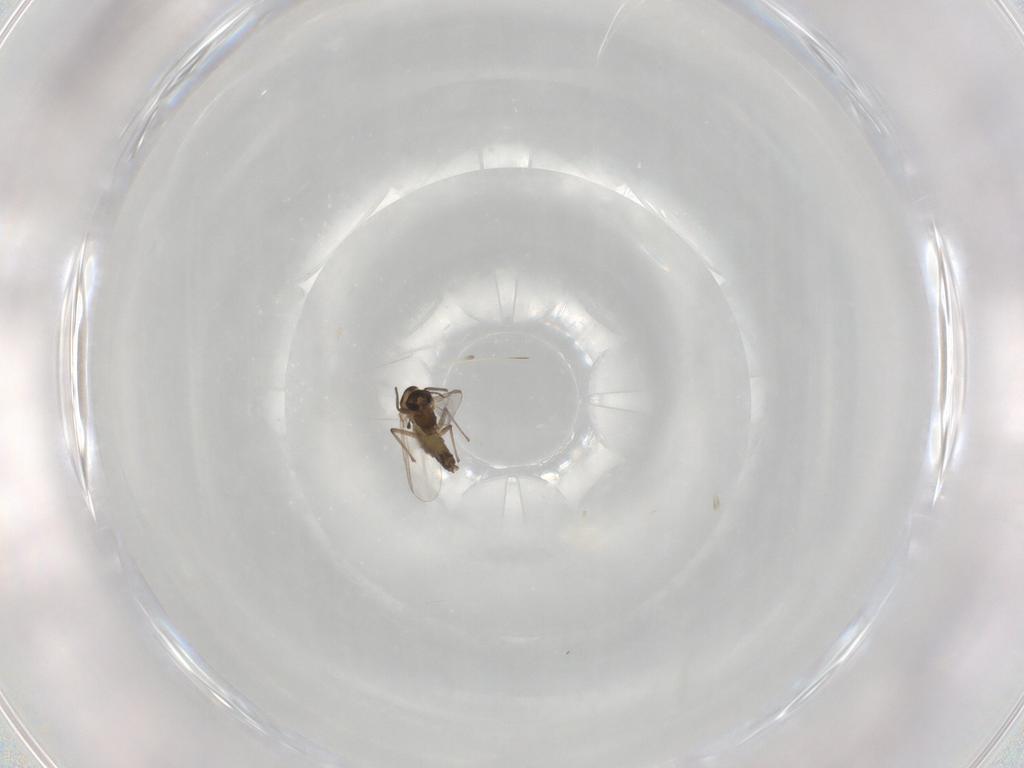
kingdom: Animalia
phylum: Arthropoda
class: Insecta
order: Diptera
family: Chironomidae
